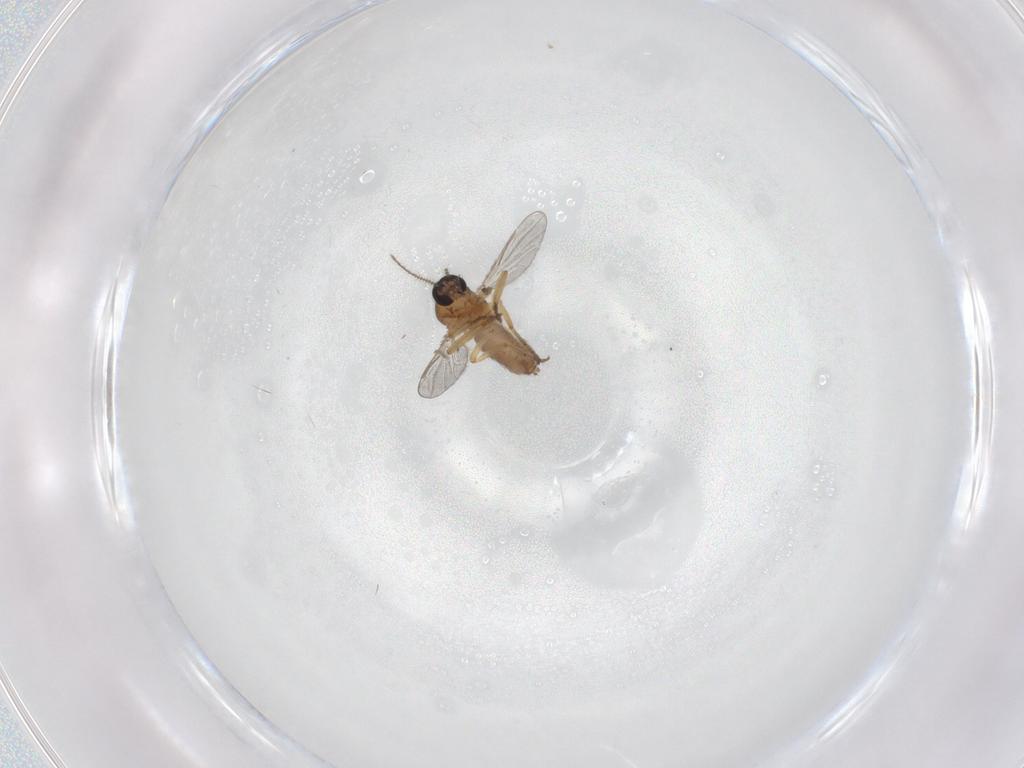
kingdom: Animalia
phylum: Arthropoda
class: Insecta
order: Diptera
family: Ceratopogonidae
